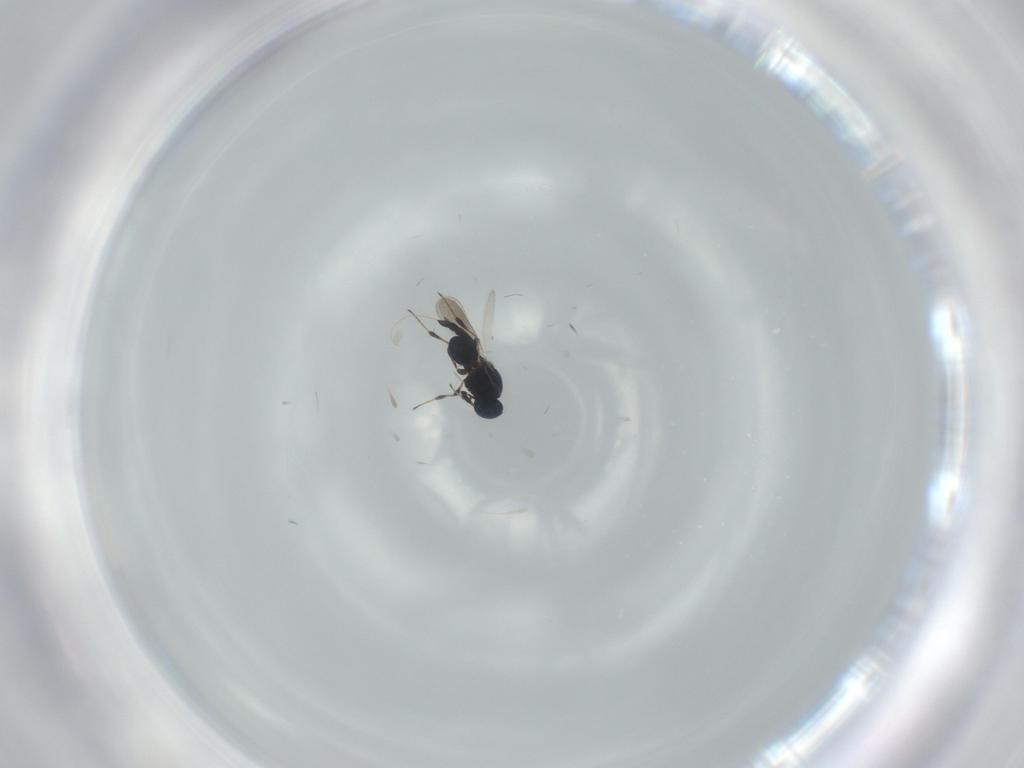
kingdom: Animalia
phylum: Arthropoda
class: Insecta
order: Hymenoptera
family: Platygastridae
